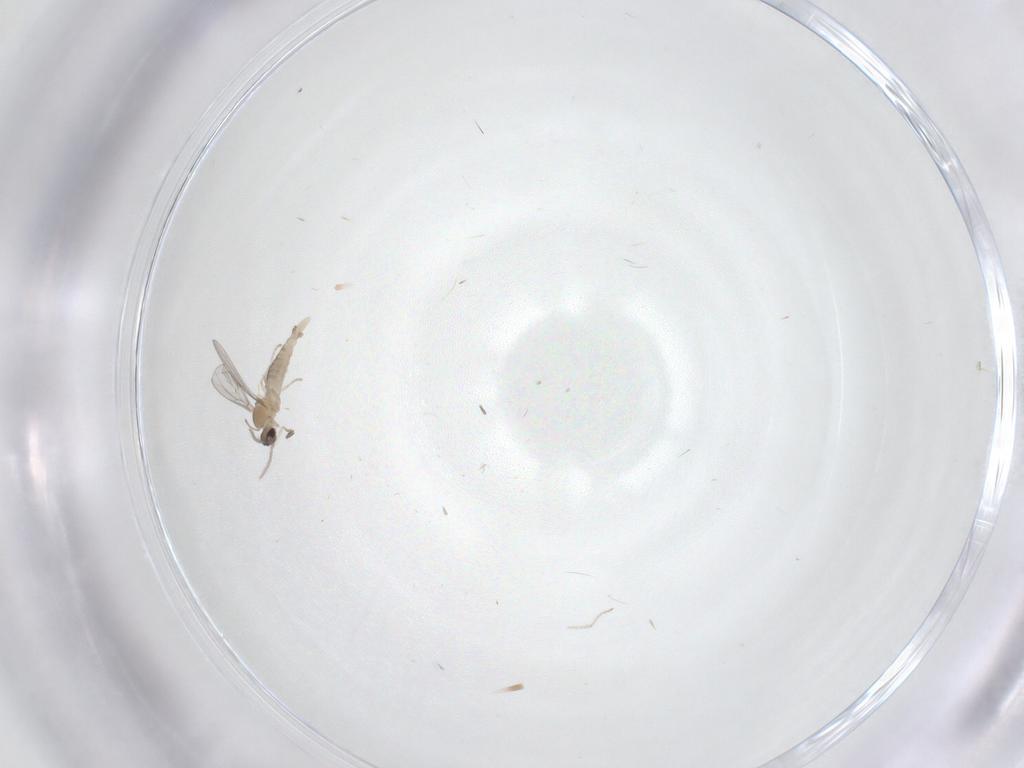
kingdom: Animalia
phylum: Arthropoda
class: Insecta
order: Diptera
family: Cecidomyiidae
